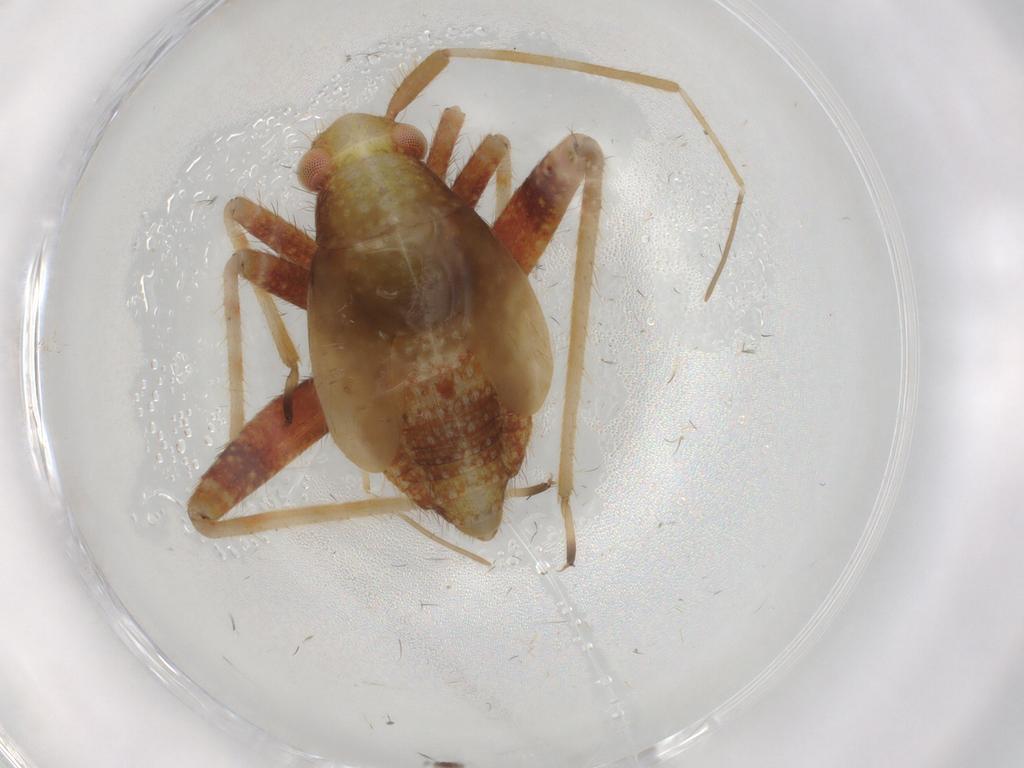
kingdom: Animalia
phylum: Arthropoda
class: Insecta
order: Hemiptera
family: Miridae
